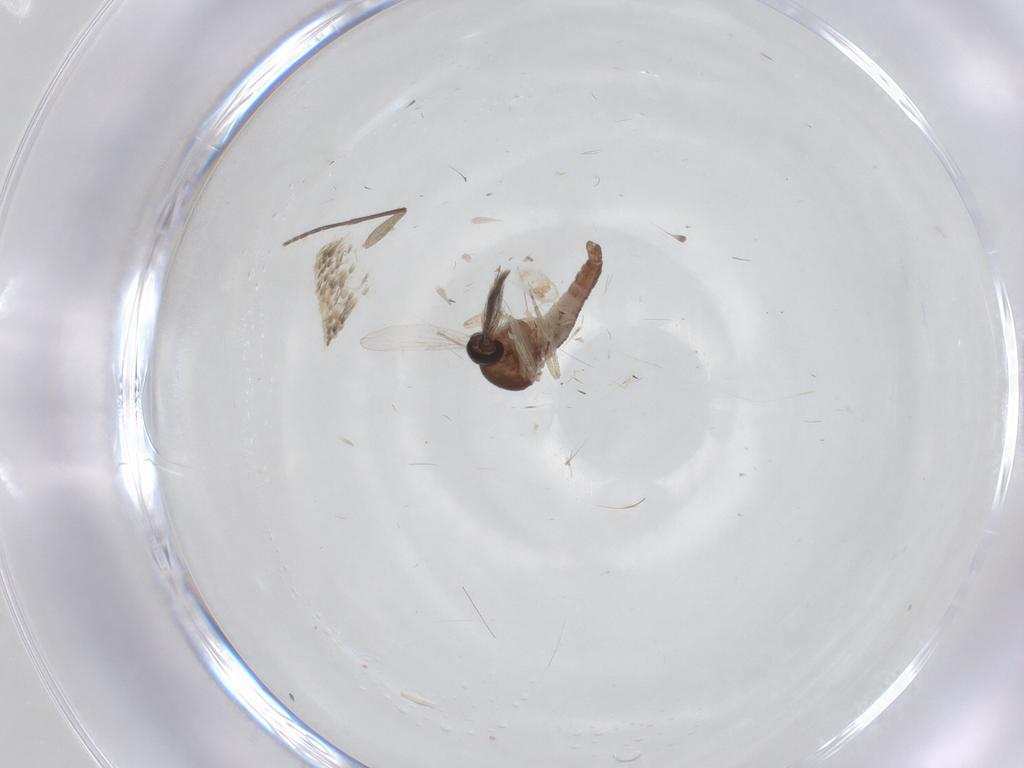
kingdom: Animalia
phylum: Arthropoda
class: Insecta
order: Diptera
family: Ceratopogonidae
